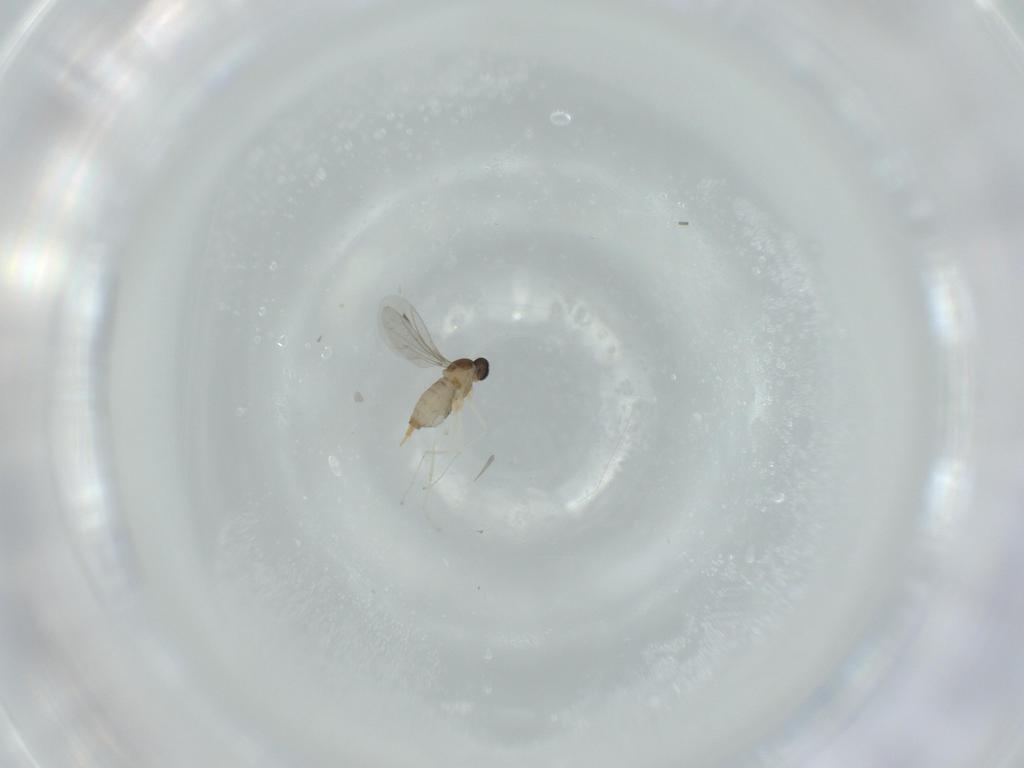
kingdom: Animalia
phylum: Arthropoda
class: Insecta
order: Diptera
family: Cecidomyiidae
